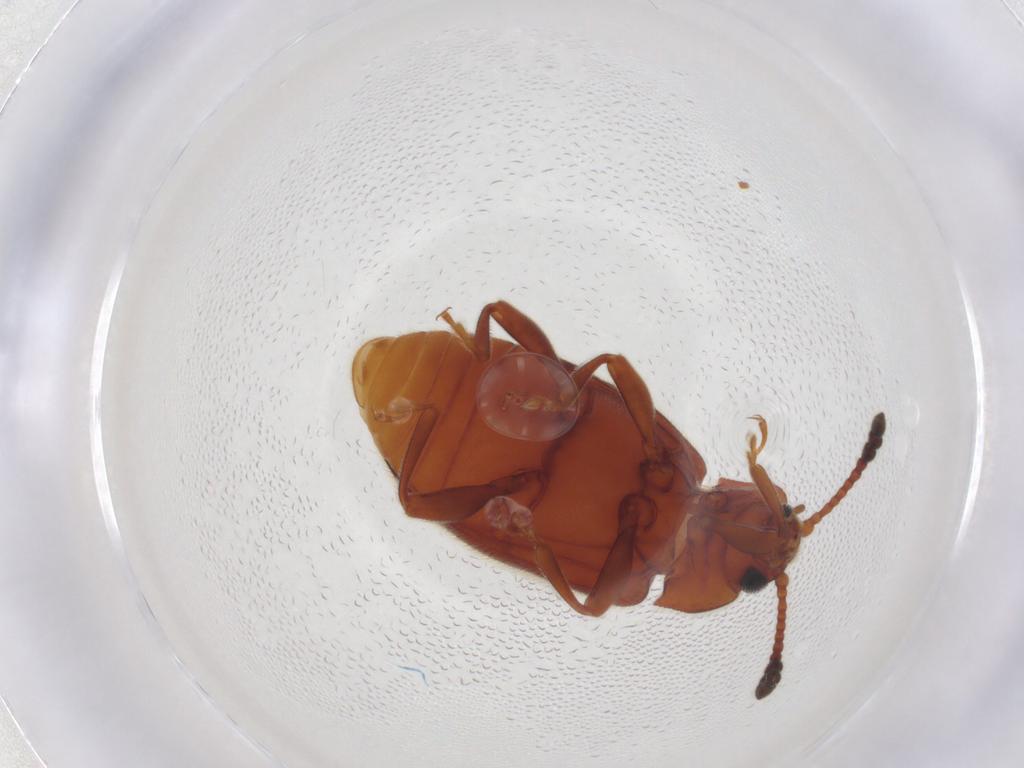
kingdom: Animalia
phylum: Arthropoda
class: Insecta
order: Coleoptera
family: Endomychidae
